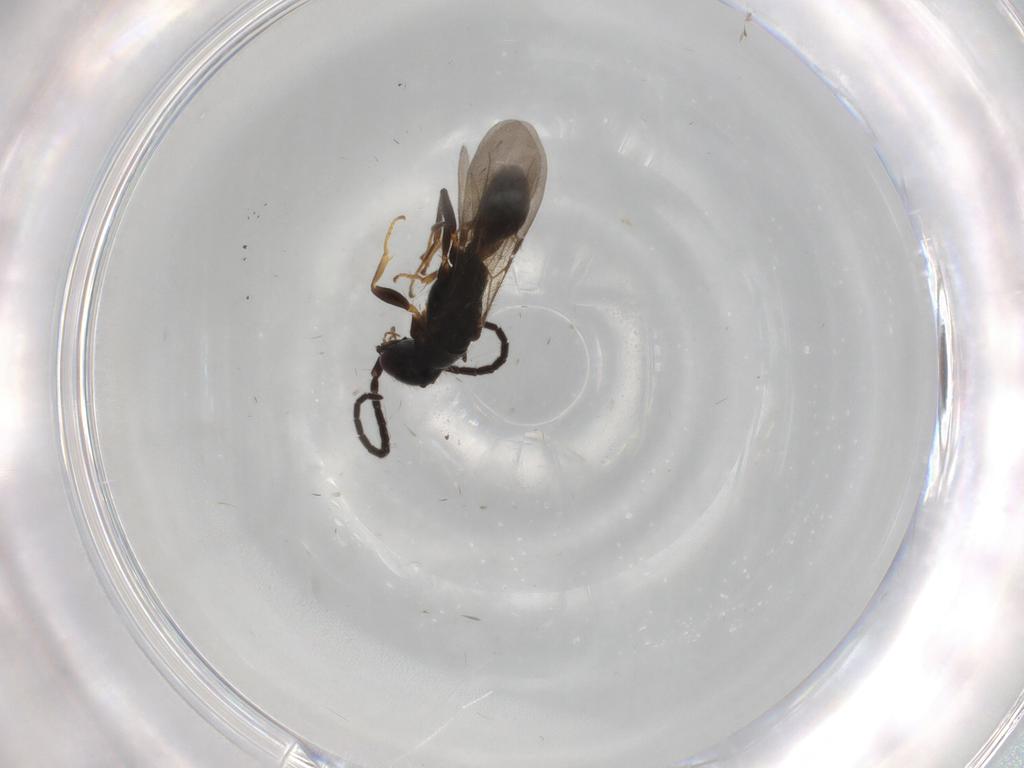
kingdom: Animalia
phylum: Arthropoda
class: Insecta
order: Hymenoptera
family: Bethylidae
